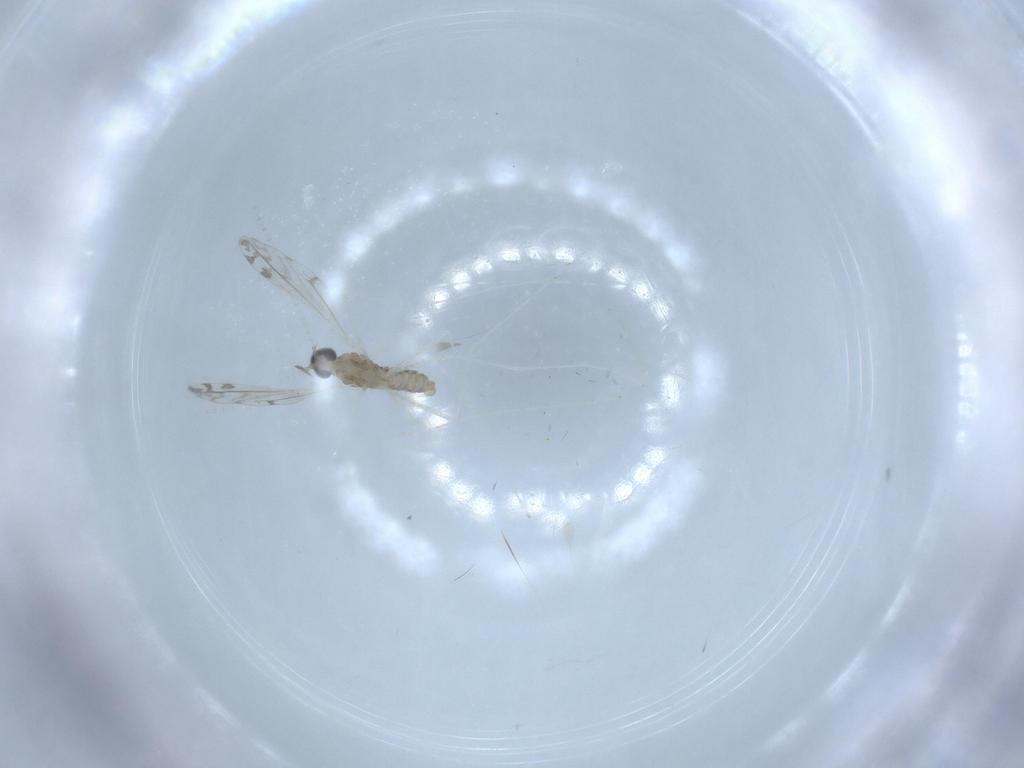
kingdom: Animalia
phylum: Arthropoda
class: Insecta
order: Diptera
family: Cecidomyiidae
